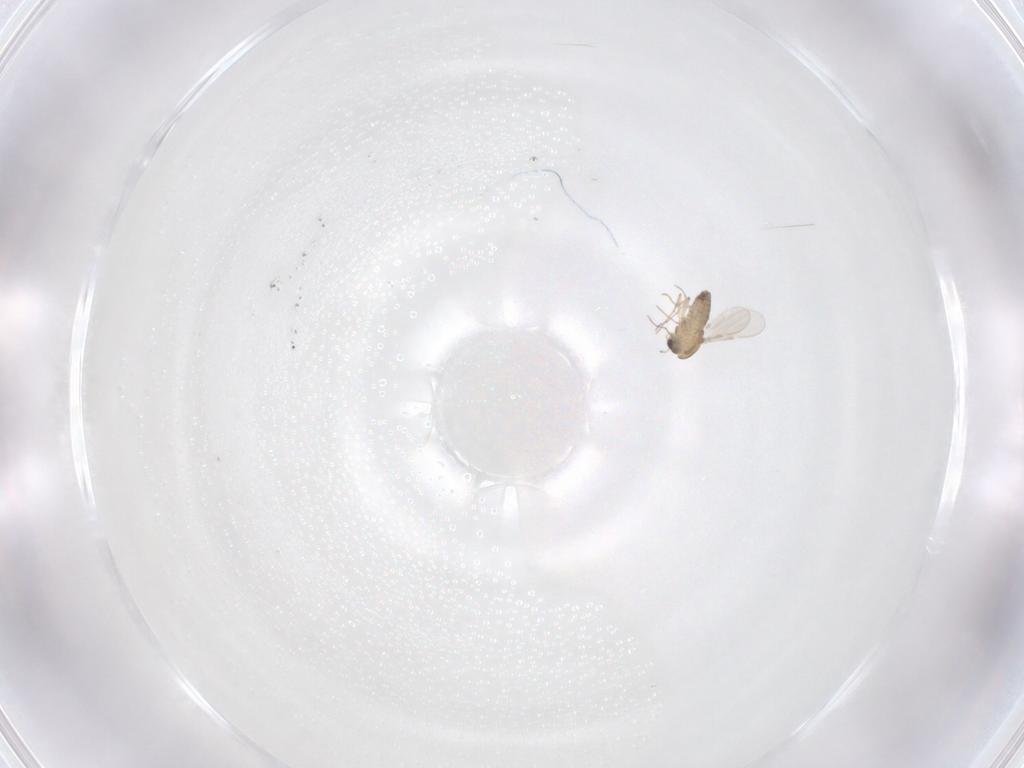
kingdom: Animalia
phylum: Arthropoda
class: Insecta
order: Diptera
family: Chironomidae
